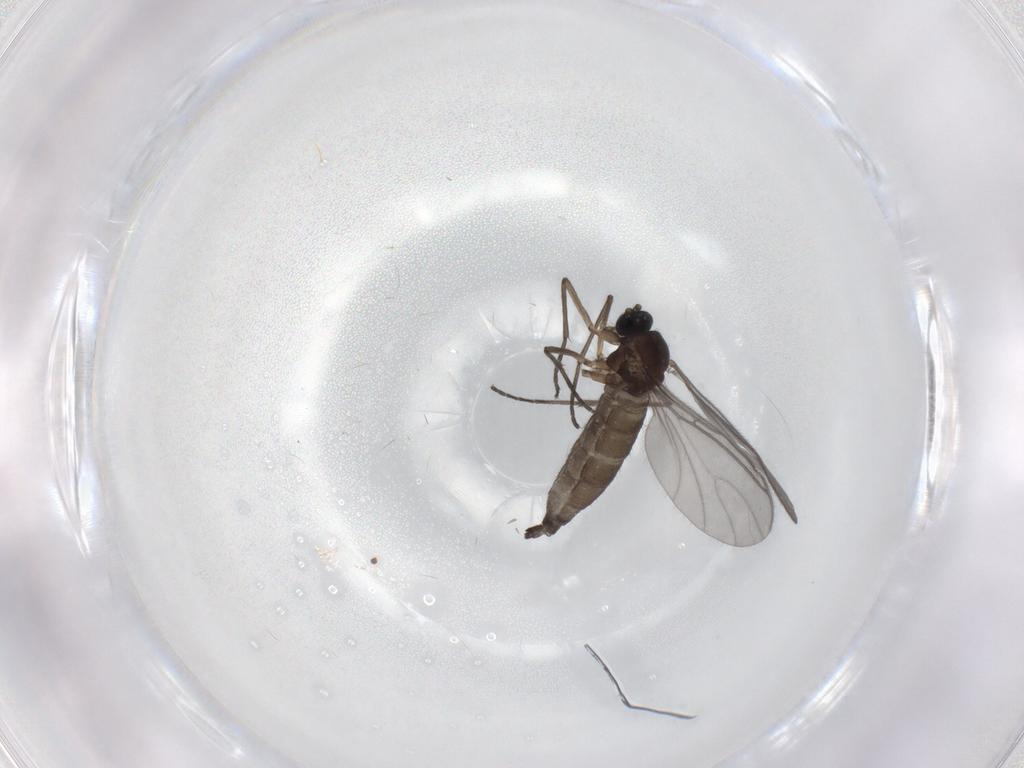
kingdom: Animalia
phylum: Arthropoda
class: Insecta
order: Diptera
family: Sciaridae
